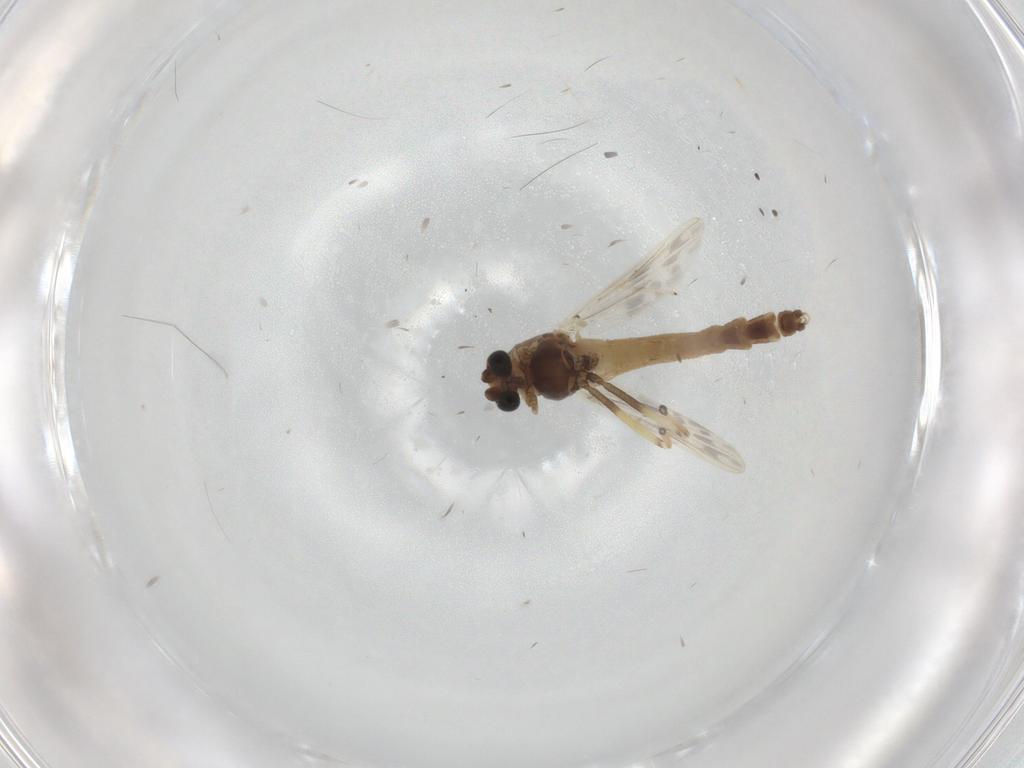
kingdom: Animalia
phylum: Arthropoda
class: Insecta
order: Diptera
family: Chironomidae
